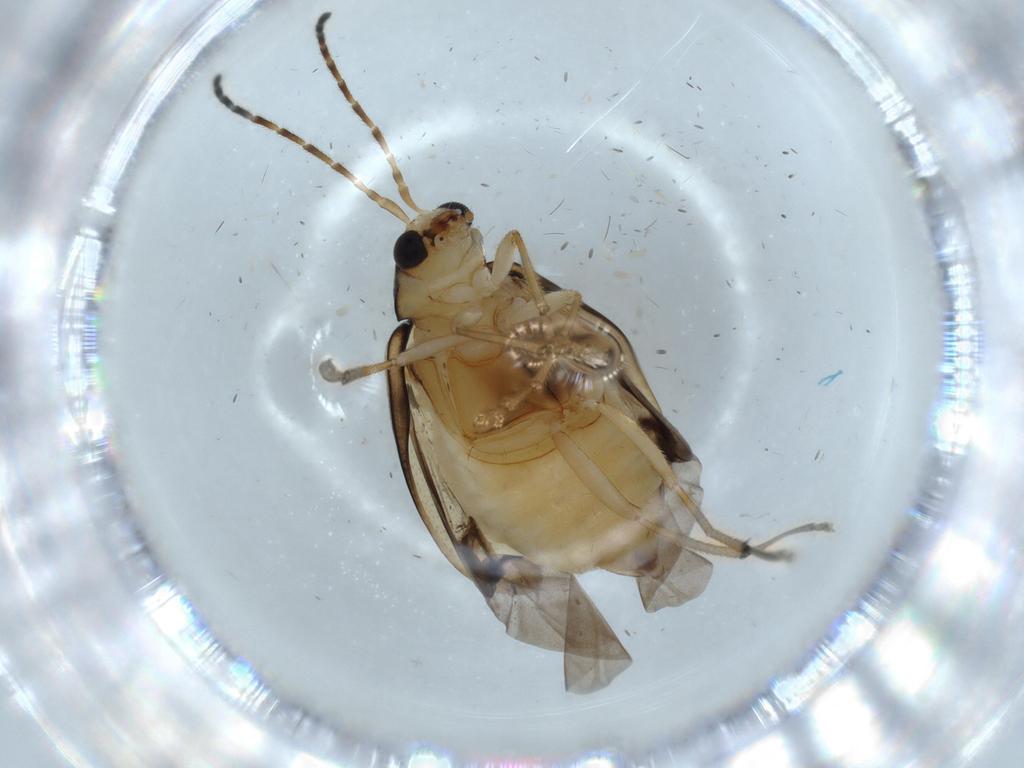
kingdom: Animalia
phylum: Arthropoda
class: Insecta
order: Coleoptera
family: Chrysomelidae
